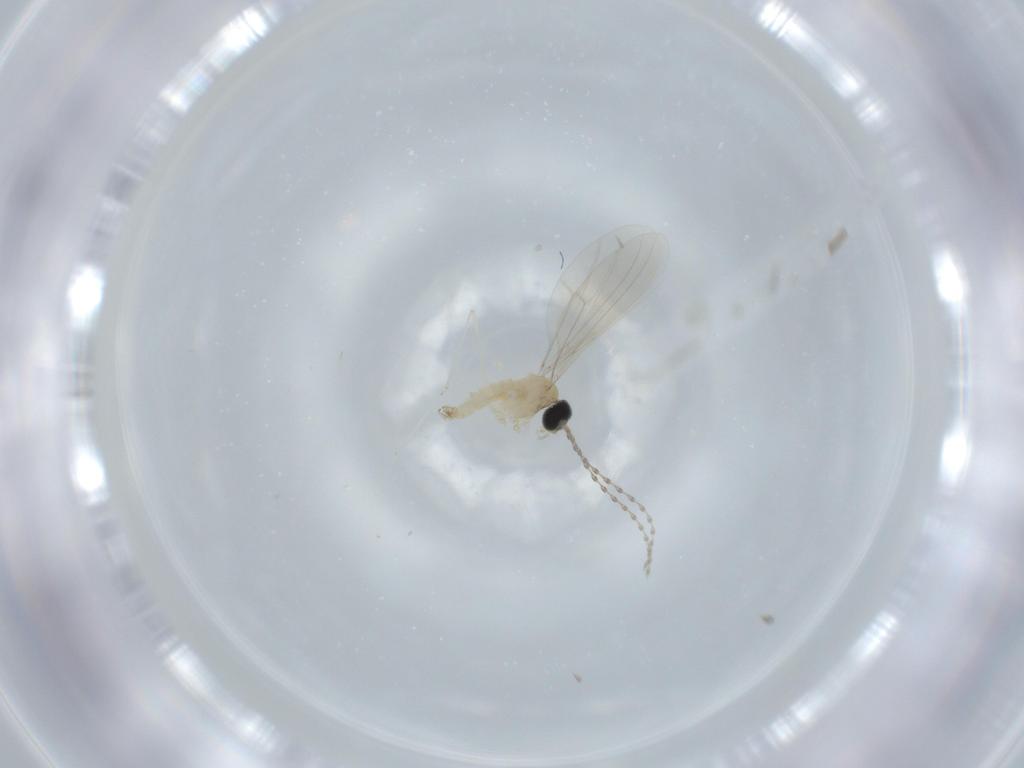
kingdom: Animalia
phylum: Arthropoda
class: Insecta
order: Diptera
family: Cecidomyiidae
